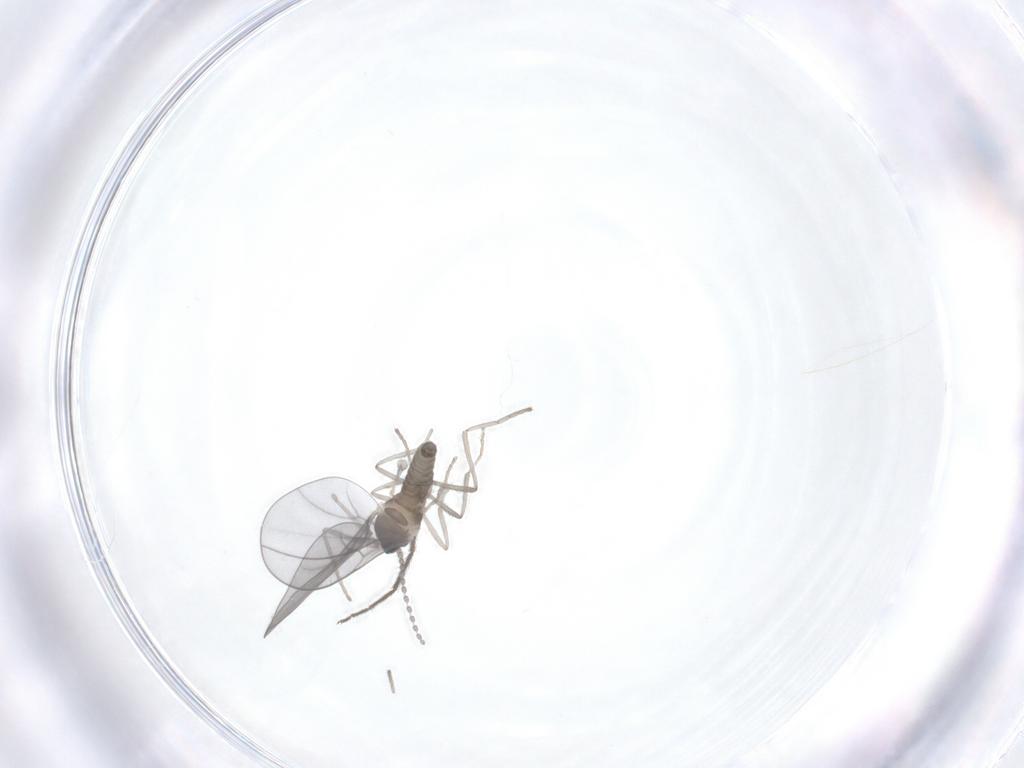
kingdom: Animalia
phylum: Arthropoda
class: Insecta
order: Diptera
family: Cecidomyiidae
